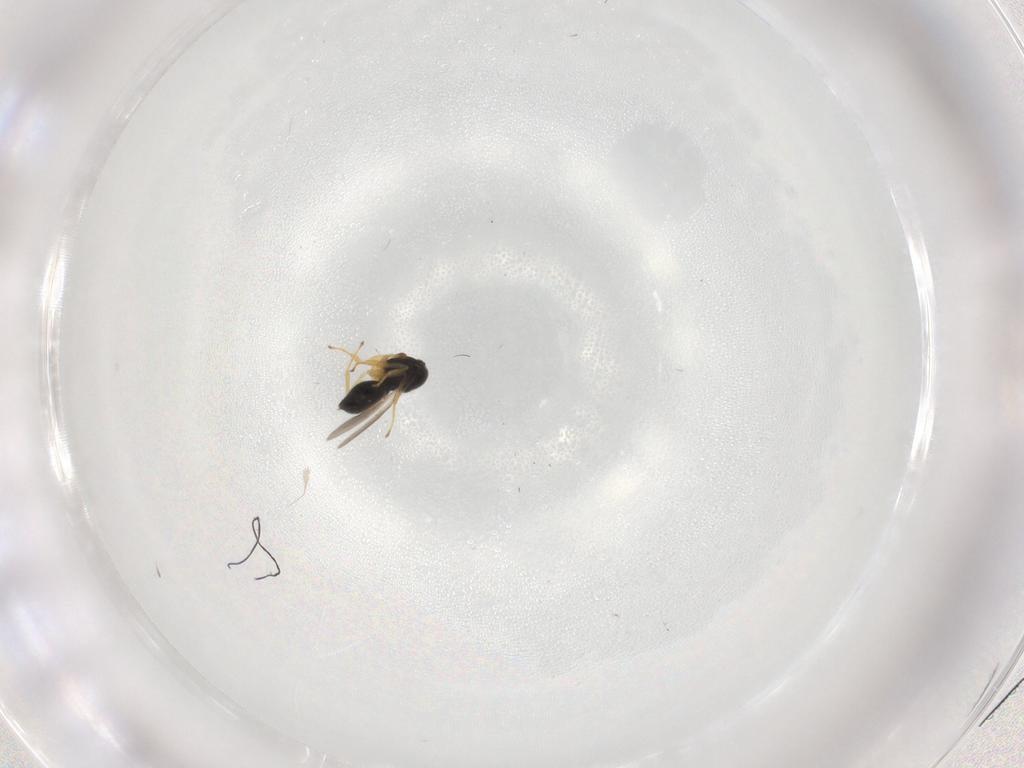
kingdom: Animalia
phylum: Arthropoda
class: Insecta
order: Hymenoptera
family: Scelionidae
